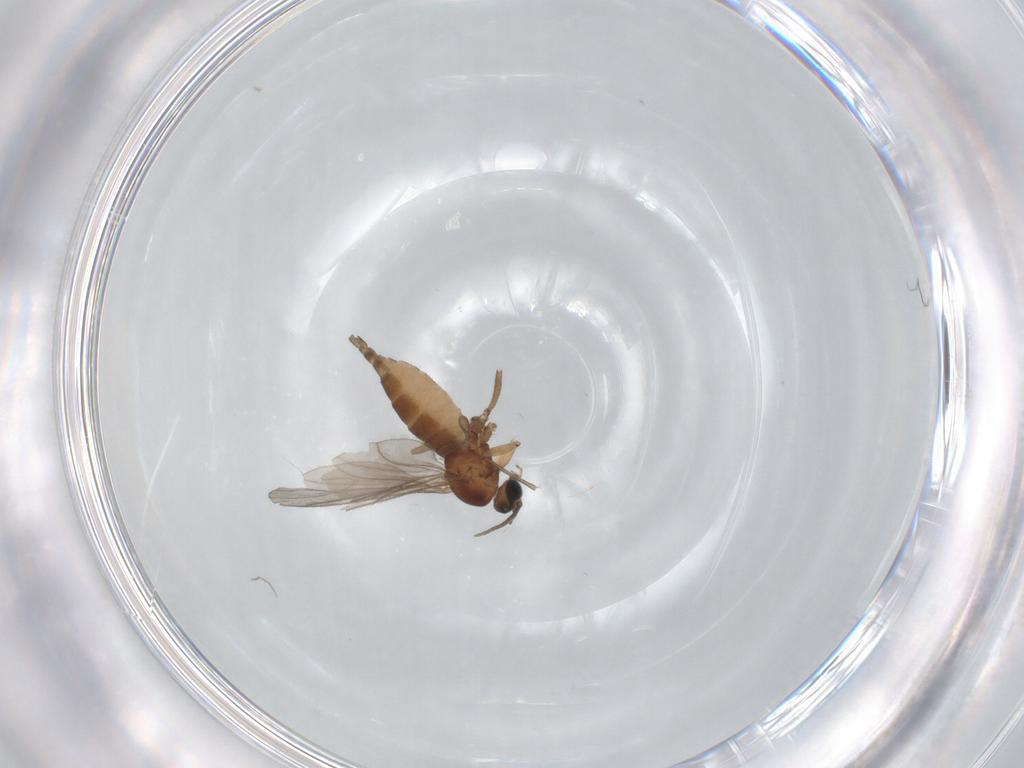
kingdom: Animalia
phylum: Arthropoda
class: Insecta
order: Diptera
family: Sciaridae
